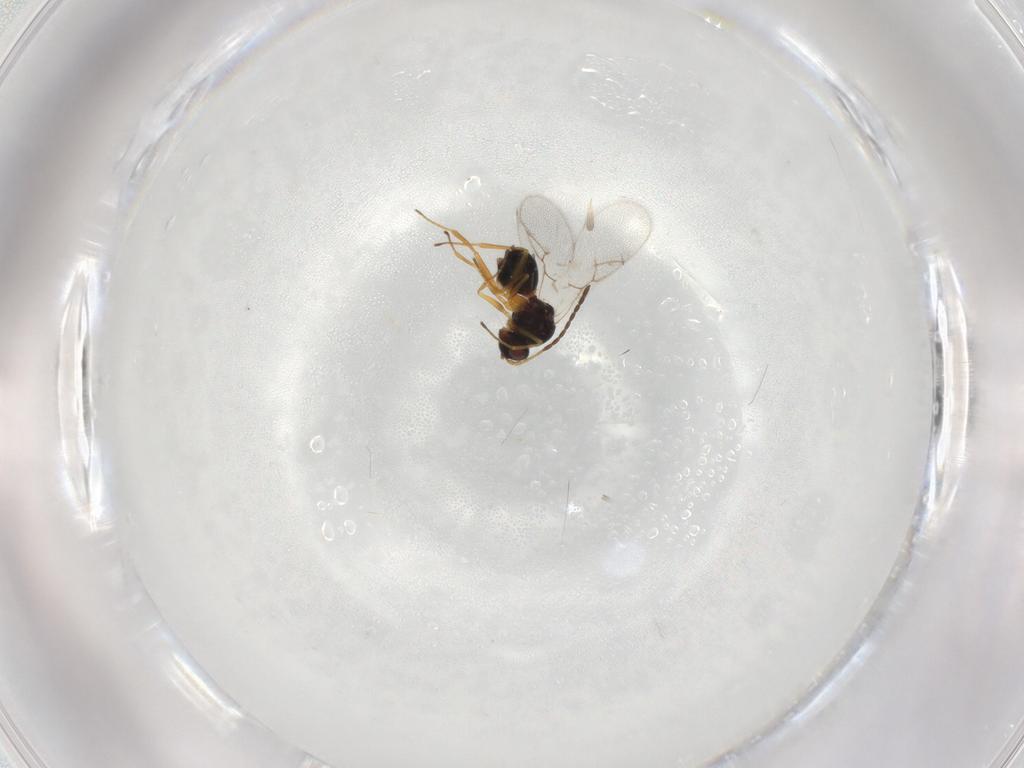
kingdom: Animalia
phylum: Arthropoda
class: Insecta
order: Hymenoptera
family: Figitidae
